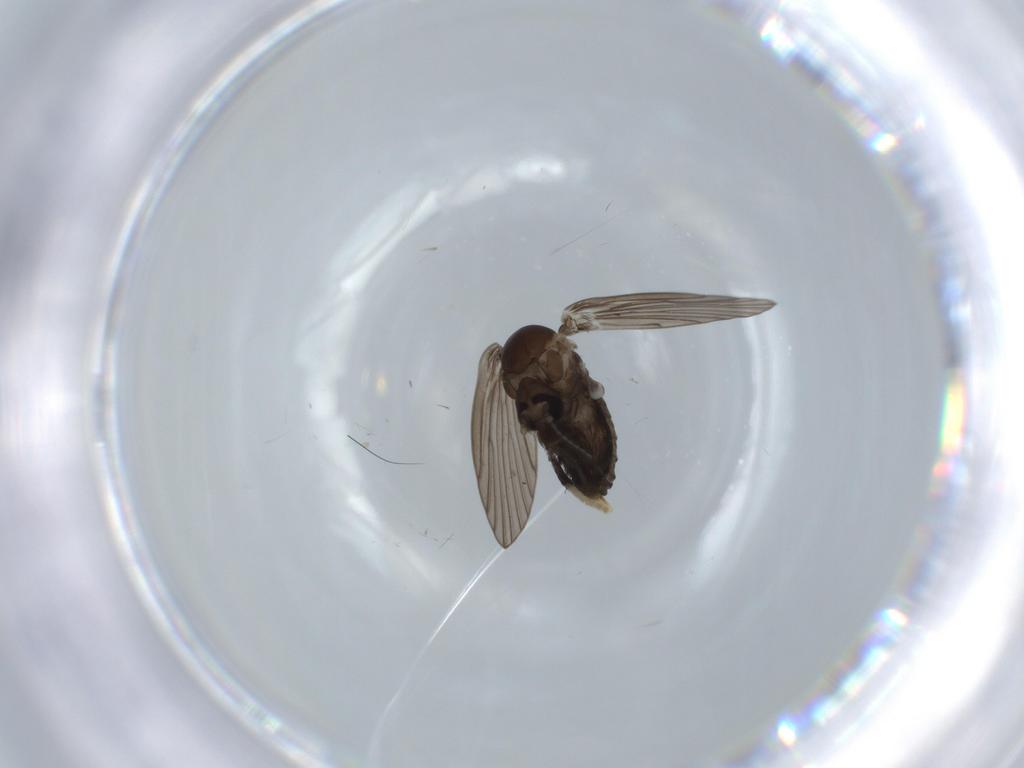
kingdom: Animalia
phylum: Arthropoda
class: Insecta
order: Diptera
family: Psychodidae
